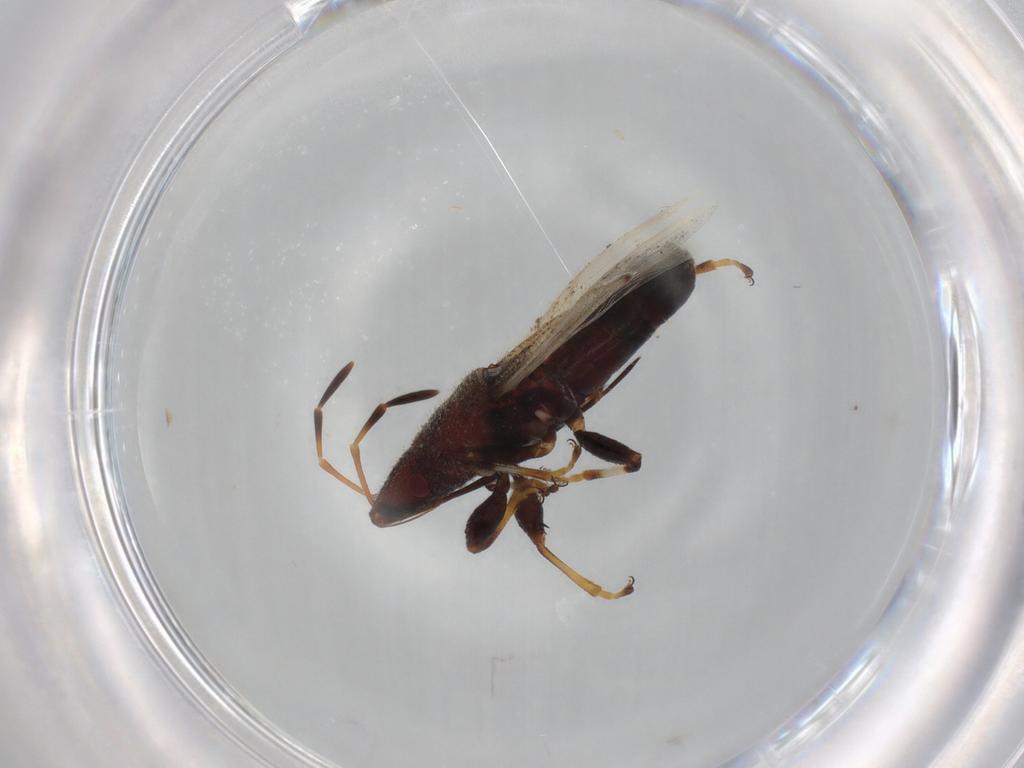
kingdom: Animalia
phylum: Arthropoda
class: Insecta
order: Hemiptera
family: Oxycarenidae
